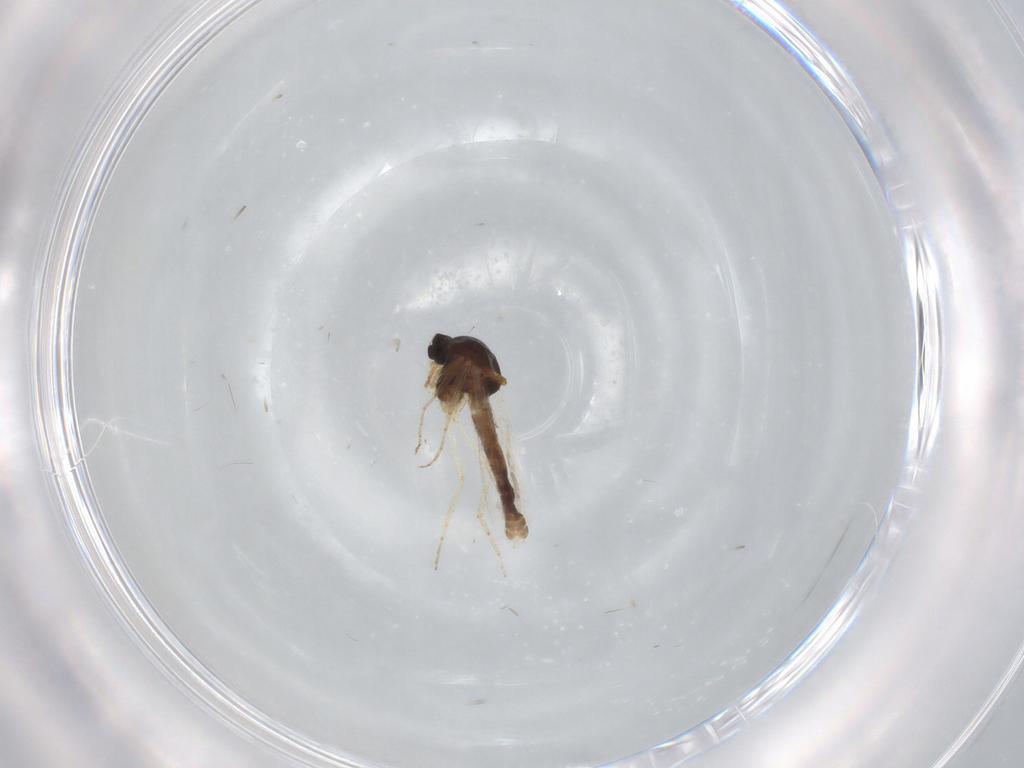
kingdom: Animalia
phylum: Arthropoda
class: Insecta
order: Diptera
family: Ceratopogonidae
